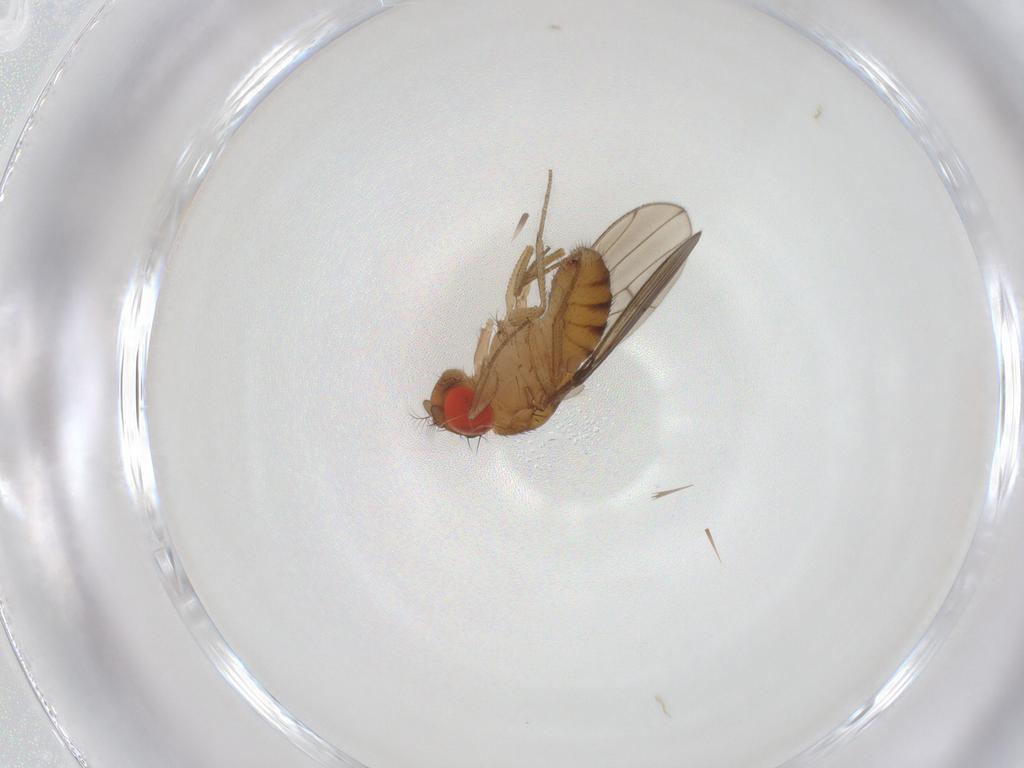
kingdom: Animalia
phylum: Arthropoda
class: Insecta
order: Diptera
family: Drosophilidae
